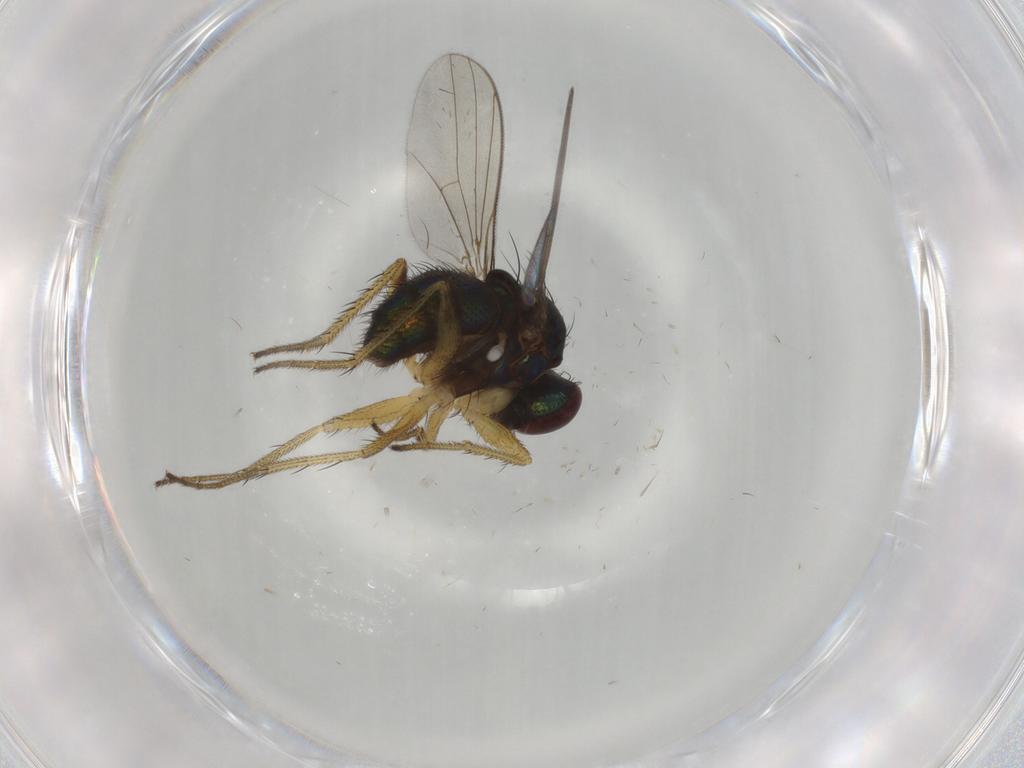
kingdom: Animalia
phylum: Arthropoda
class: Insecta
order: Diptera
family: Dolichopodidae
